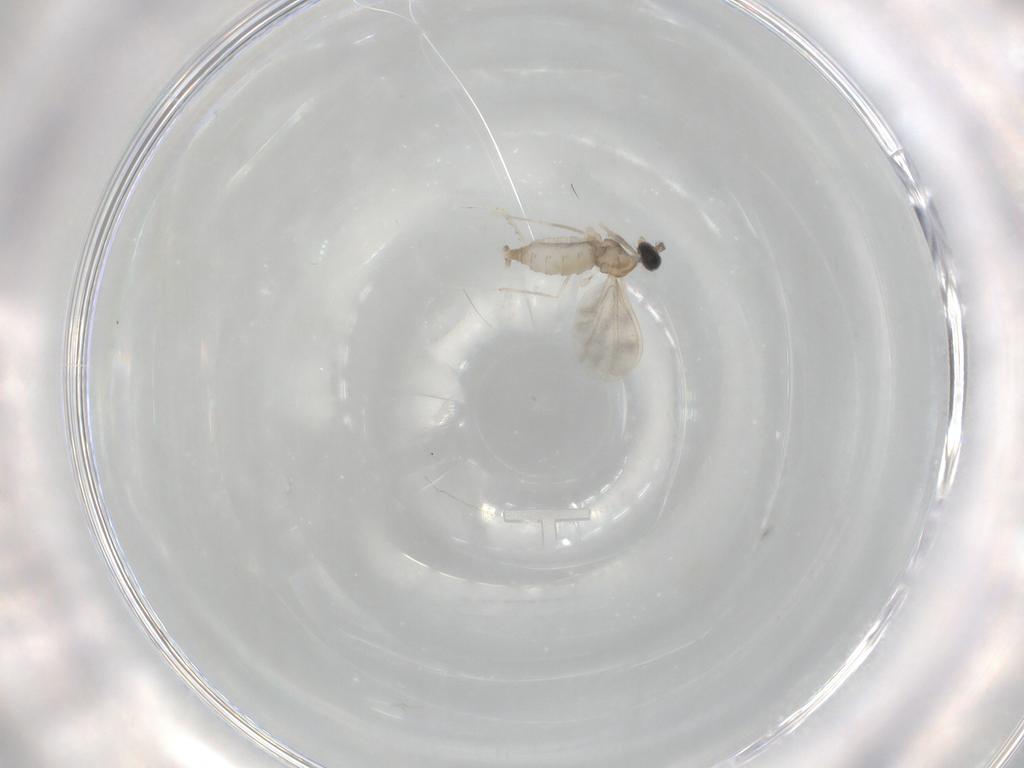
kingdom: Animalia
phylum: Arthropoda
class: Insecta
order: Diptera
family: Cecidomyiidae
